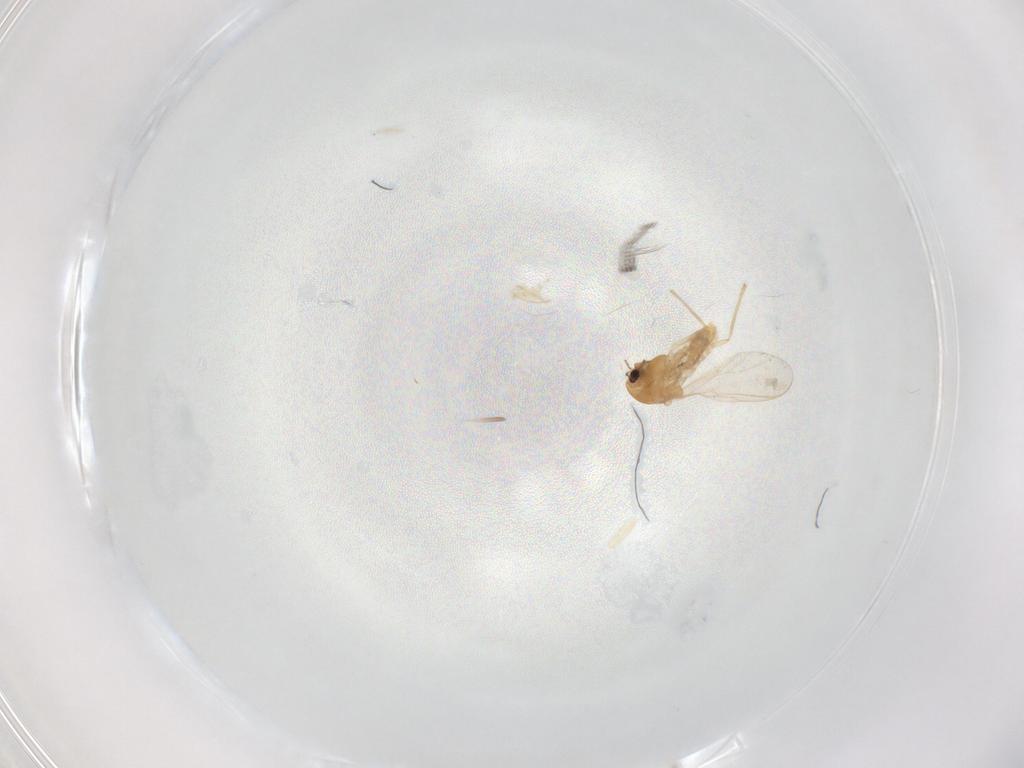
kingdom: Animalia
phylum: Arthropoda
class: Insecta
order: Diptera
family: Chironomidae
